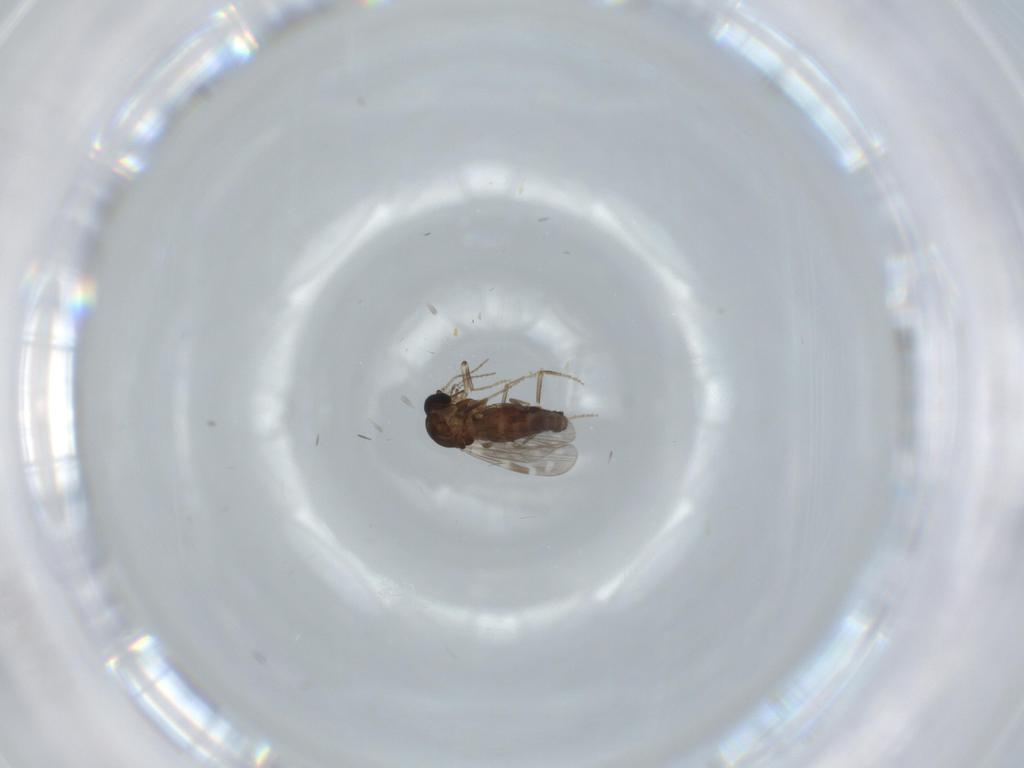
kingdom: Animalia
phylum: Arthropoda
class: Insecta
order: Diptera
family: Ceratopogonidae
